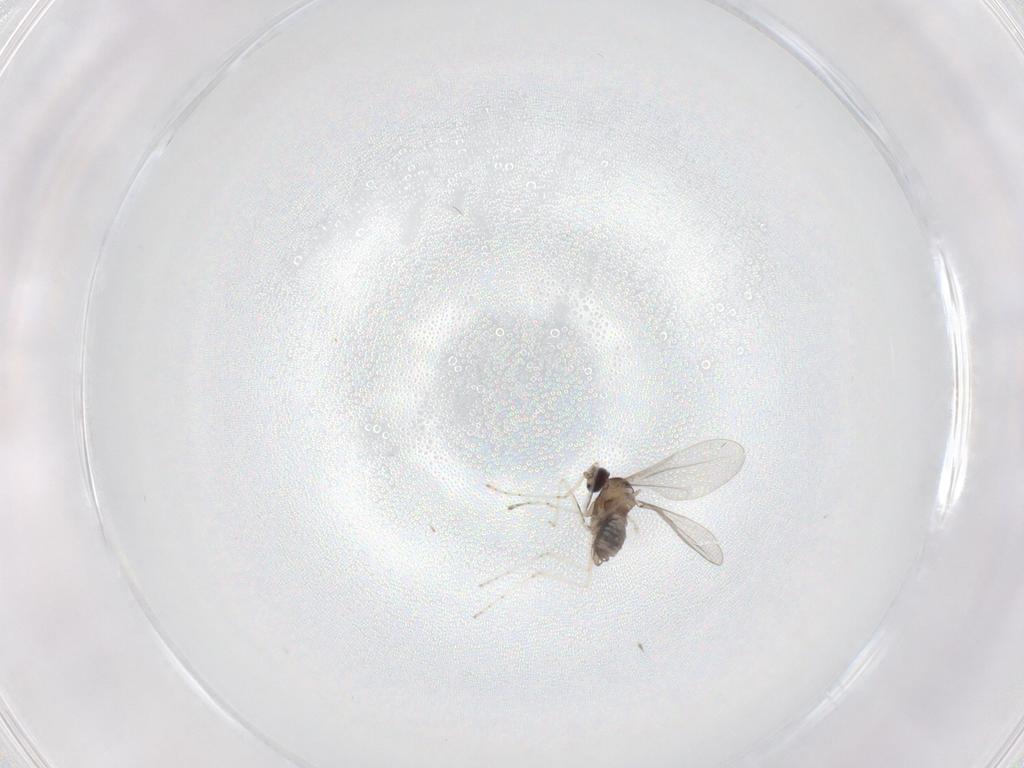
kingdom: Animalia
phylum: Arthropoda
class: Insecta
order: Diptera
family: Cecidomyiidae
